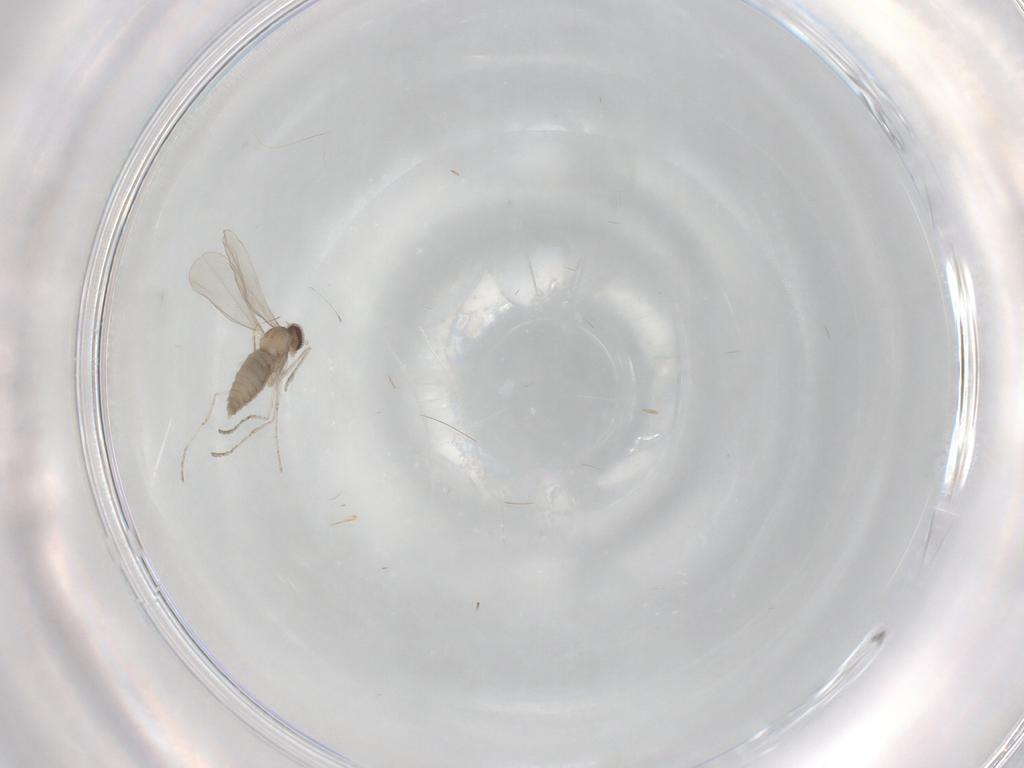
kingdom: Animalia
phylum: Arthropoda
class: Insecta
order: Diptera
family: Cecidomyiidae
